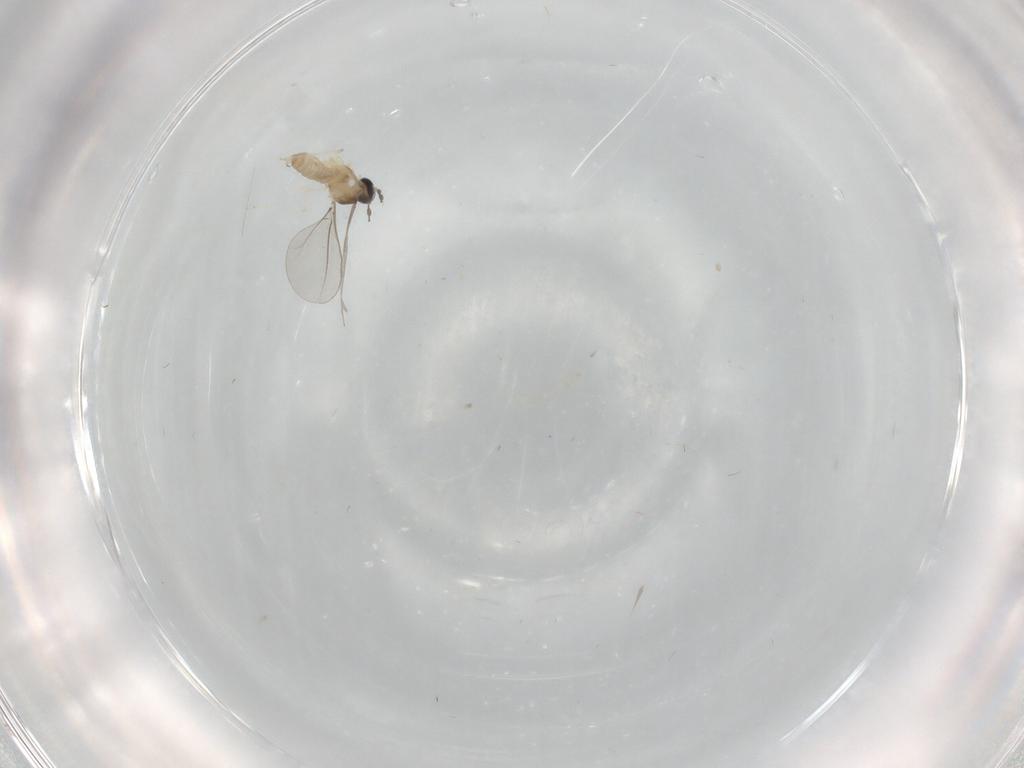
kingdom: Animalia
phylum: Arthropoda
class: Insecta
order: Diptera
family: Cecidomyiidae
